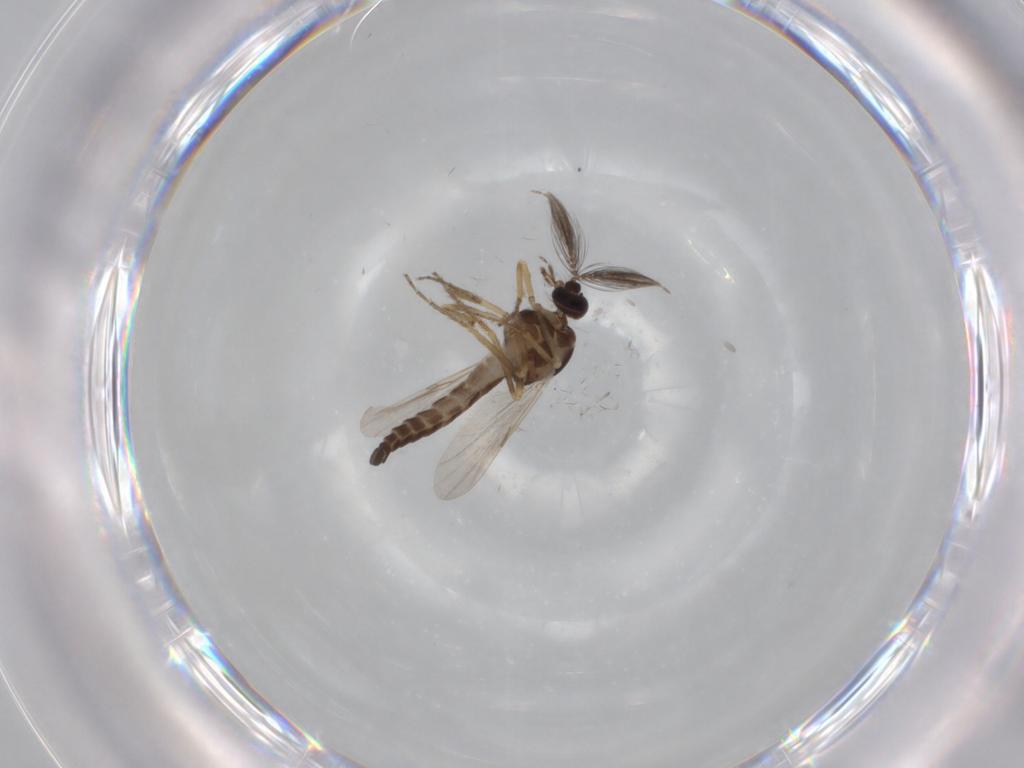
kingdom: Animalia
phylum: Arthropoda
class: Insecta
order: Diptera
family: Ceratopogonidae
